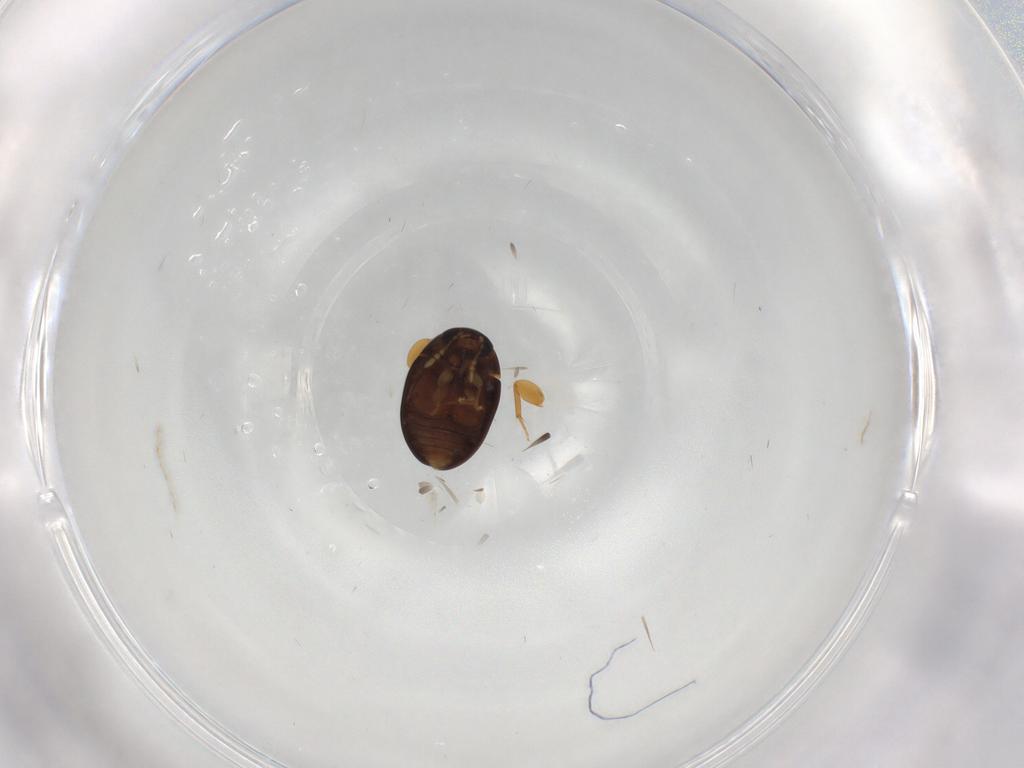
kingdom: Animalia
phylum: Arthropoda
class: Insecta
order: Coleoptera
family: Phalacridae
